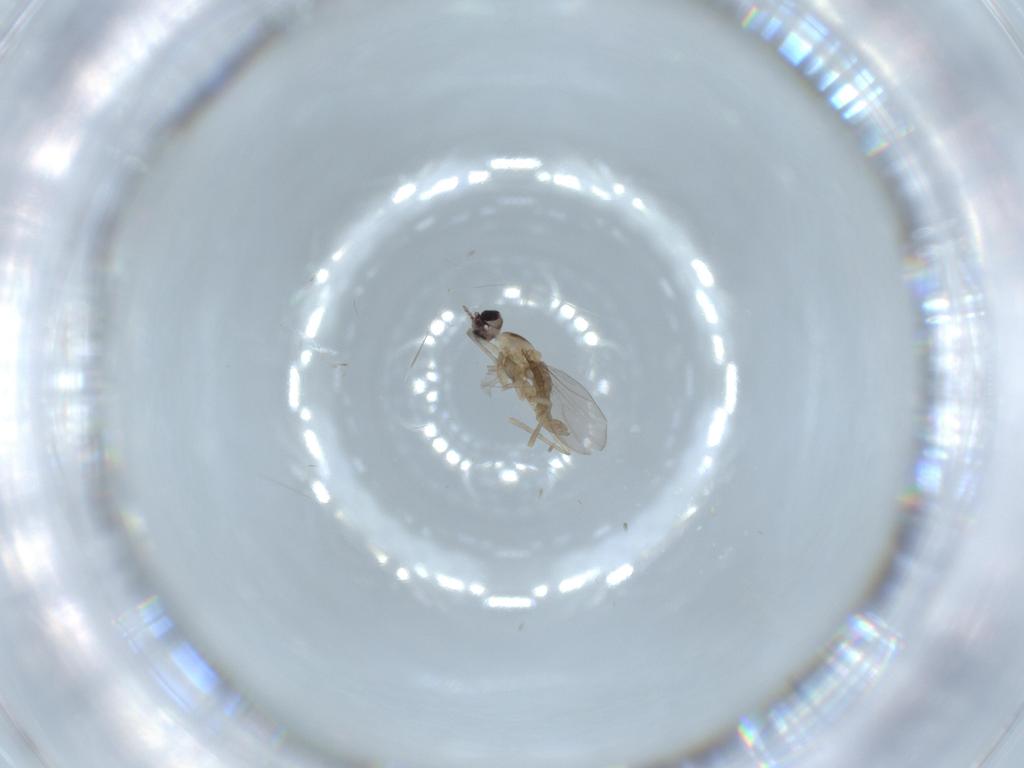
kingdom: Animalia
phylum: Arthropoda
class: Insecta
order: Diptera
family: Cecidomyiidae
